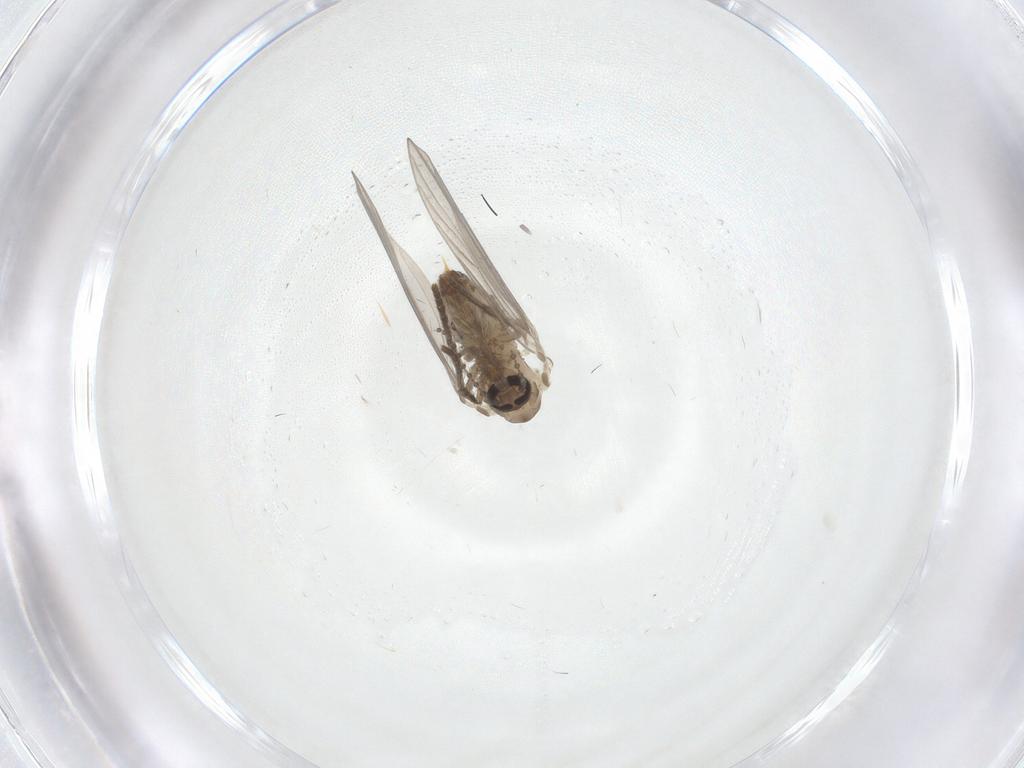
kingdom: Animalia
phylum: Arthropoda
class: Insecta
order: Diptera
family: Psychodidae
